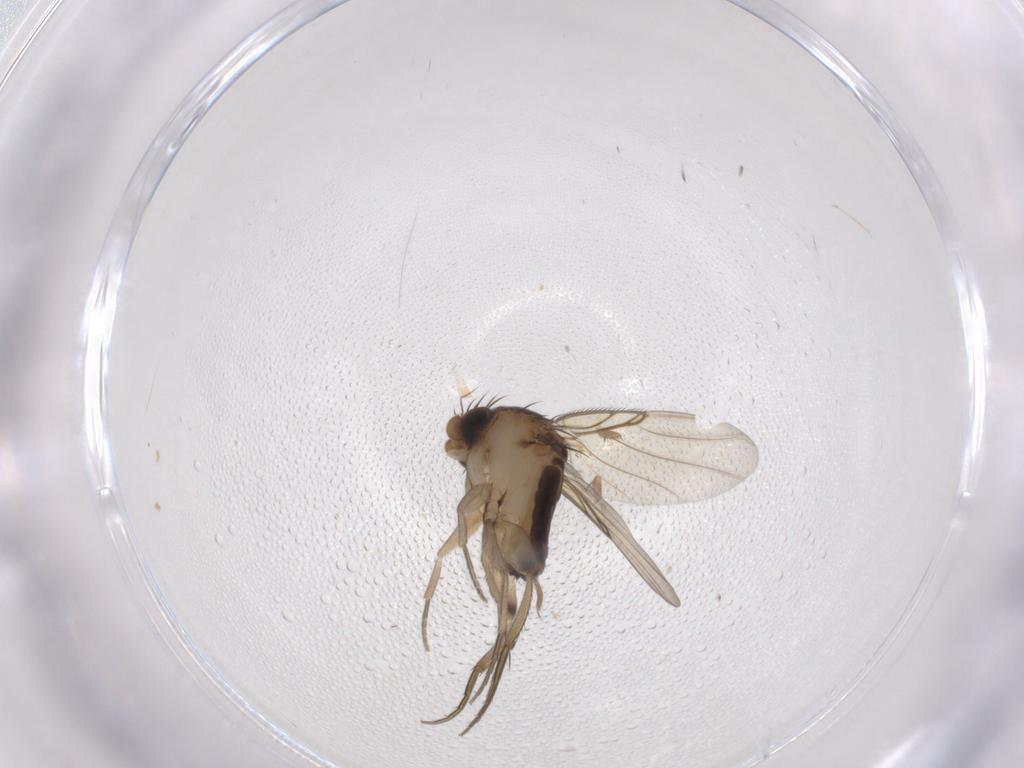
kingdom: Animalia
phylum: Arthropoda
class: Insecta
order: Diptera
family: Phoridae
